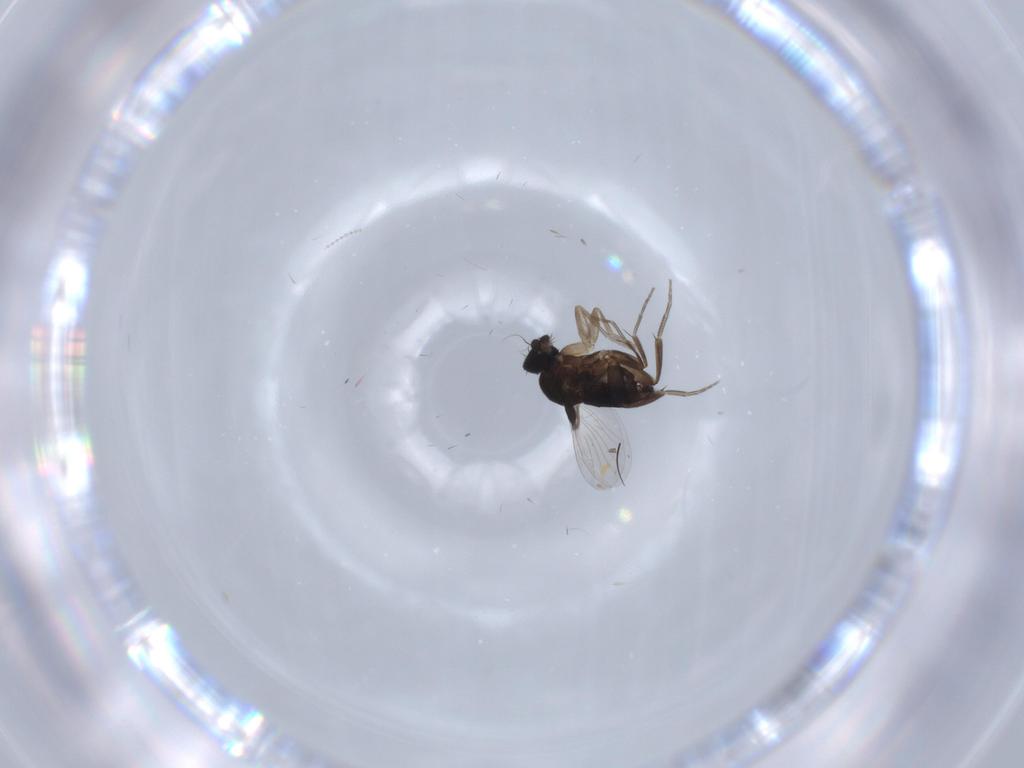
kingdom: Animalia
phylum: Arthropoda
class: Insecta
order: Diptera
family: Phoridae
